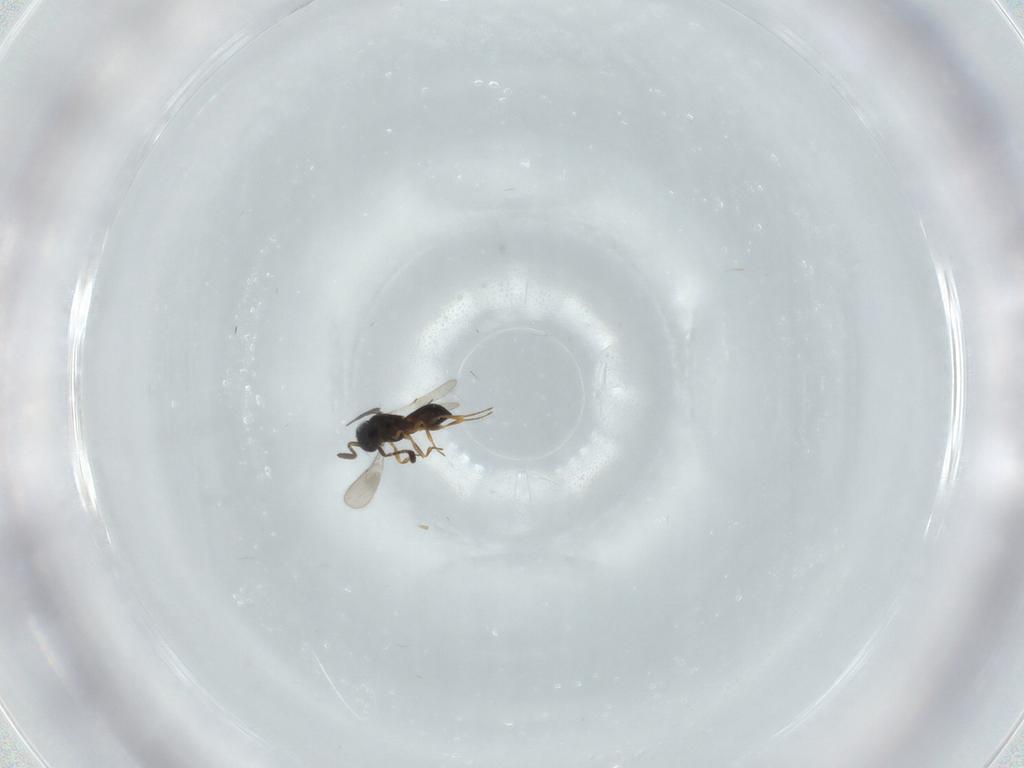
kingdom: Animalia
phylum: Arthropoda
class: Insecta
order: Hymenoptera
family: Scelionidae
